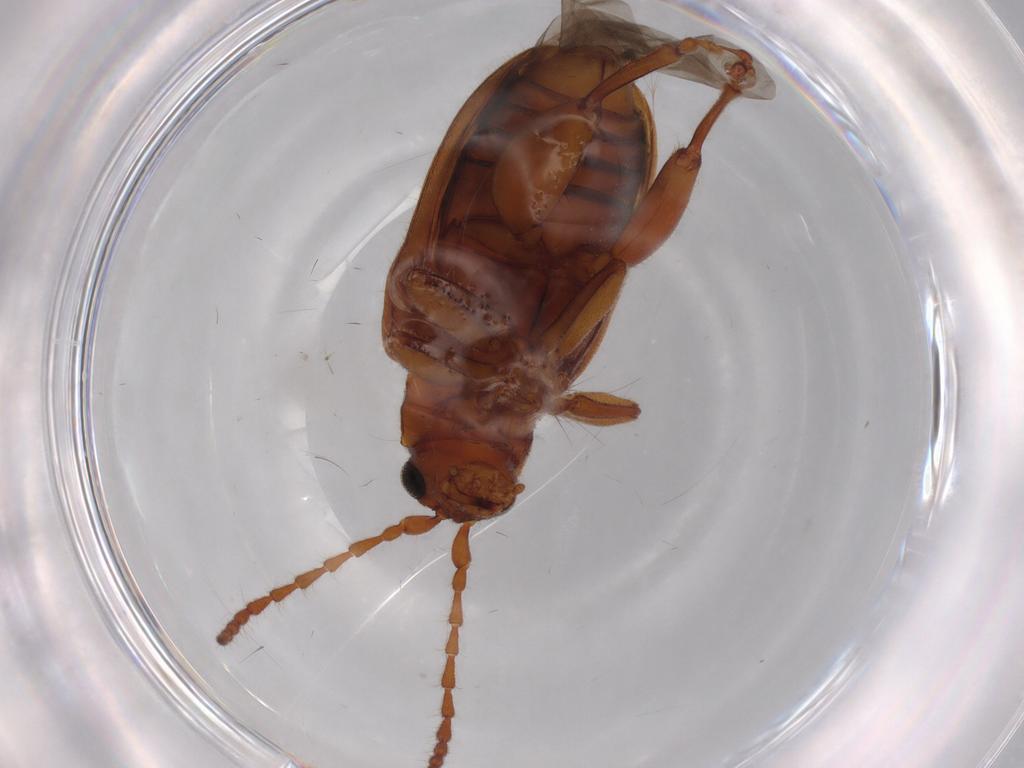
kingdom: Animalia
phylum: Arthropoda
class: Insecta
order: Coleoptera
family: Chrysomelidae
